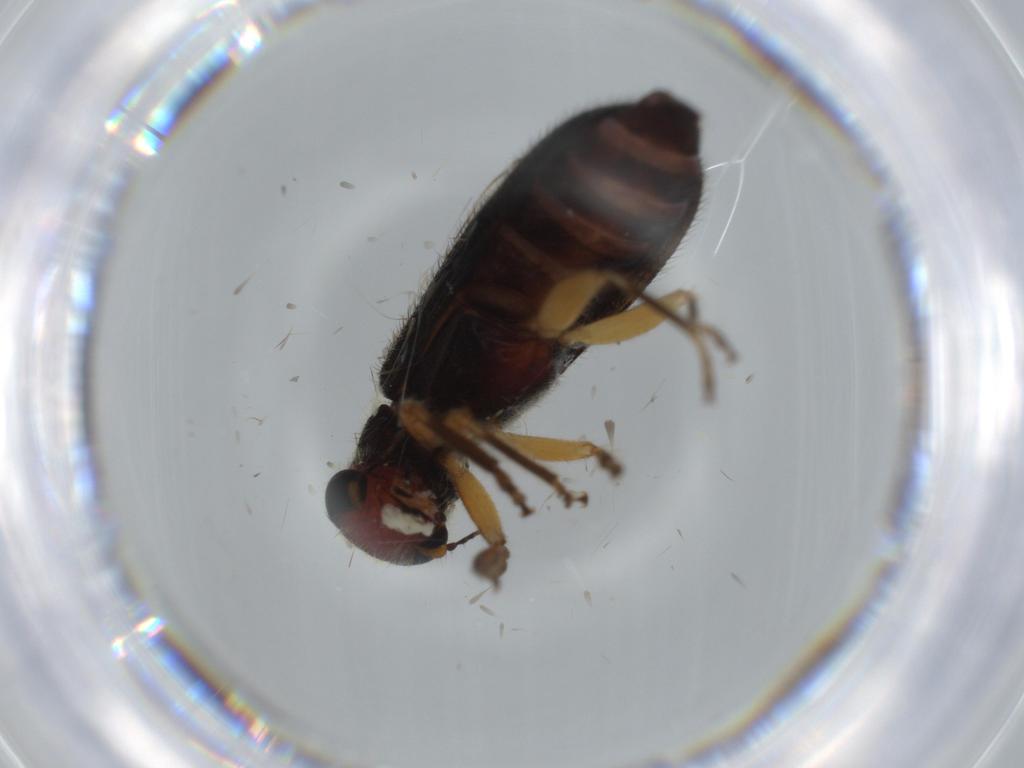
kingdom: Animalia
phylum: Arthropoda
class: Insecta
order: Coleoptera
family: Cleridae
